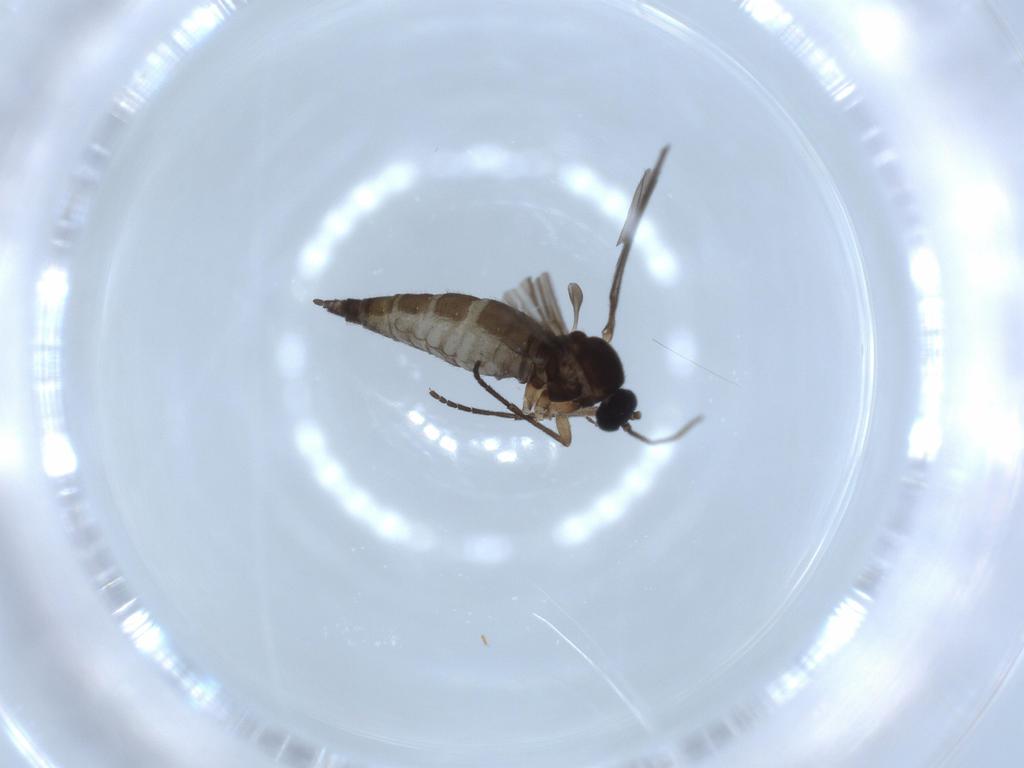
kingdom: Animalia
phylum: Arthropoda
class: Insecta
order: Diptera
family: Sciaridae
